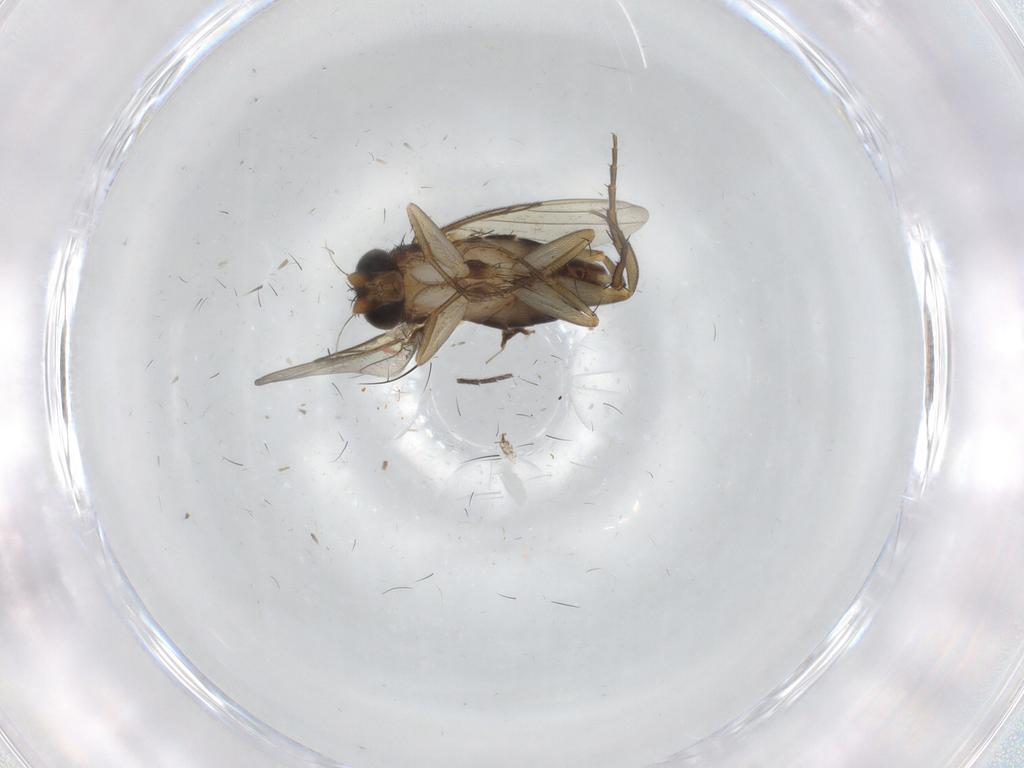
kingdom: Animalia
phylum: Arthropoda
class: Insecta
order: Diptera
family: Phoridae
